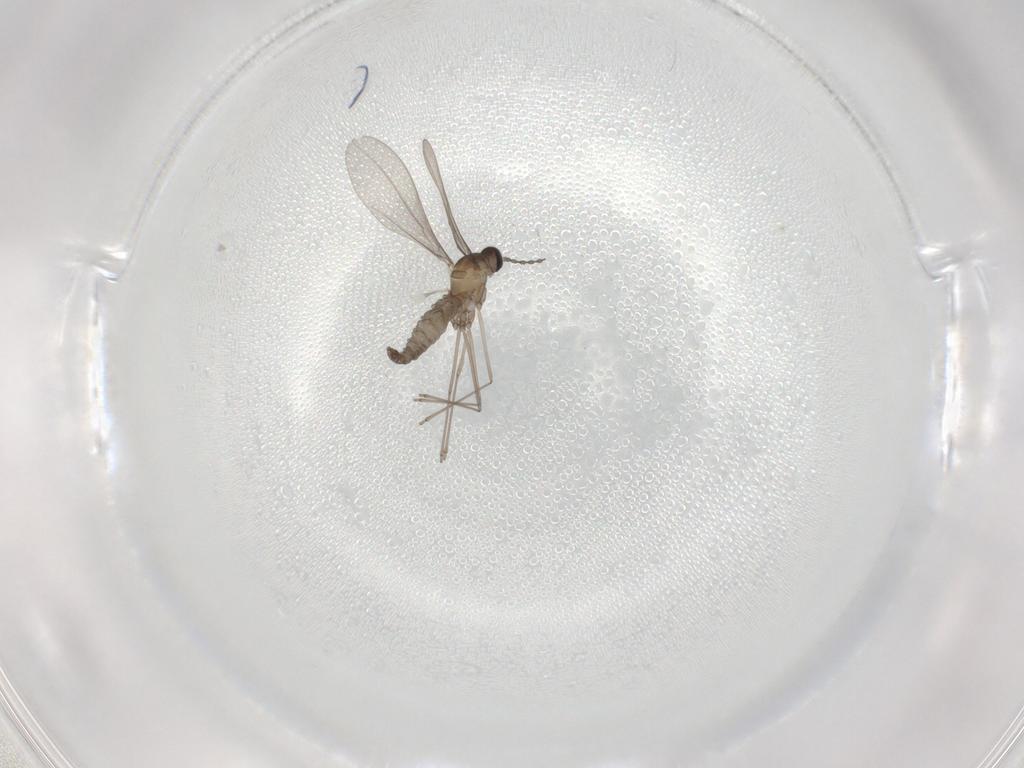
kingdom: Animalia
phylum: Arthropoda
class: Insecta
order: Diptera
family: Cecidomyiidae
